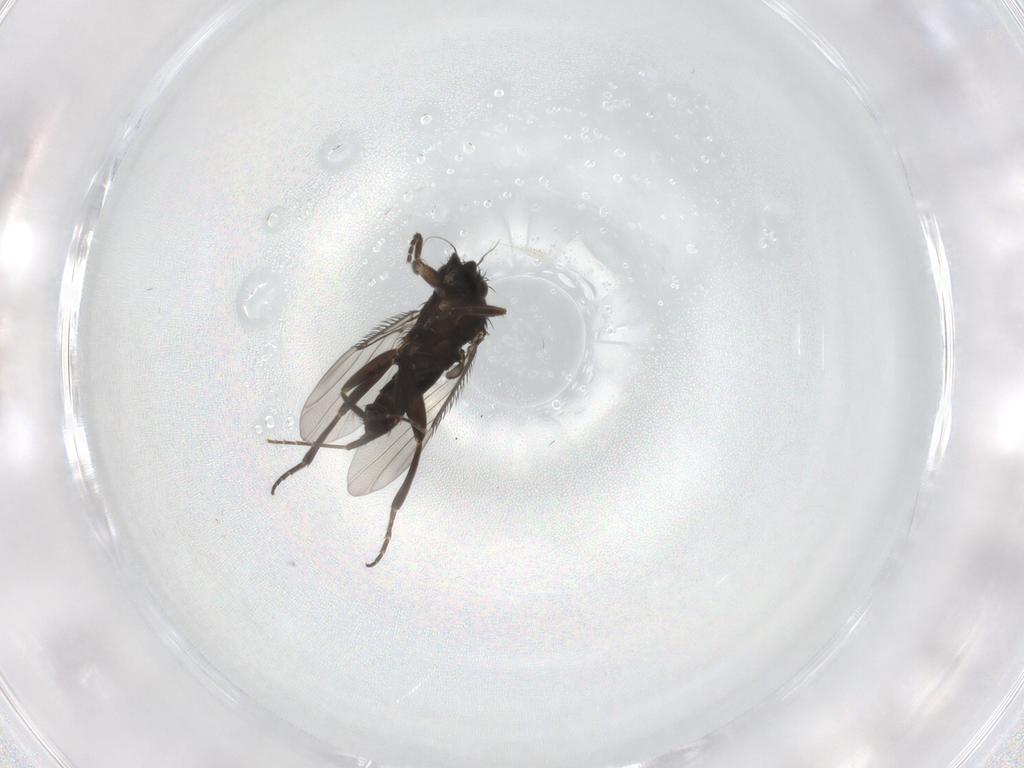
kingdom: Animalia
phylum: Arthropoda
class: Insecta
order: Diptera
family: Phoridae
